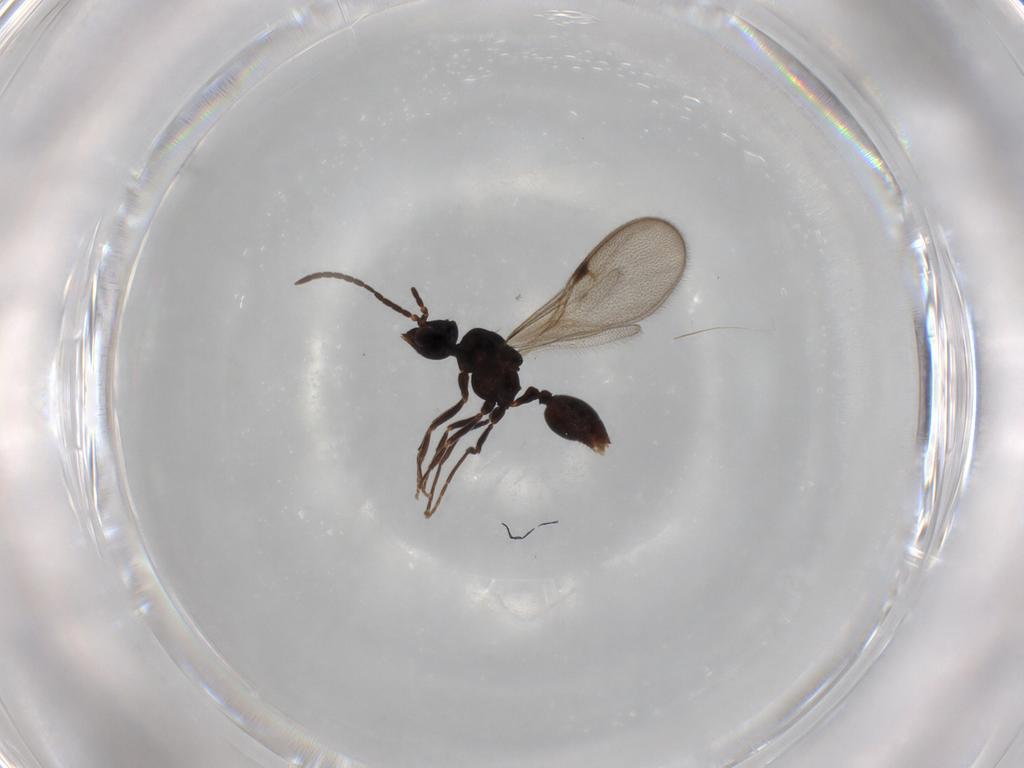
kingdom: Animalia
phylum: Arthropoda
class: Insecta
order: Hymenoptera
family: Formicidae
